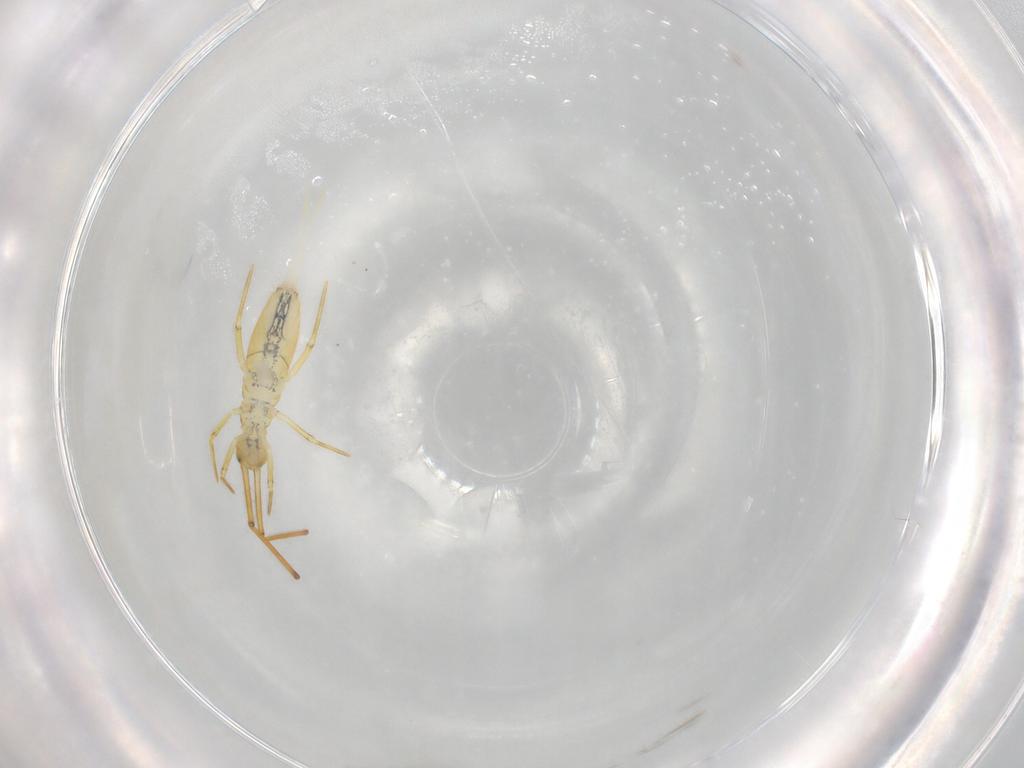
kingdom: Animalia
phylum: Arthropoda
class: Collembola
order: Entomobryomorpha
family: Entomobryidae
